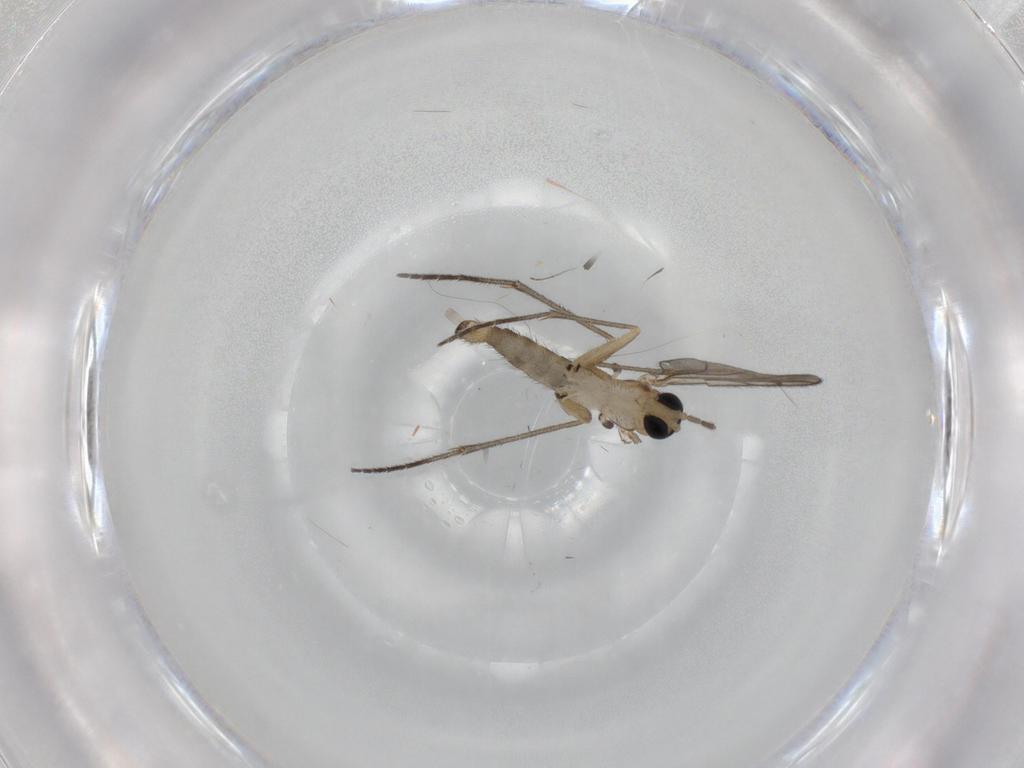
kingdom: Animalia
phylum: Arthropoda
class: Insecta
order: Diptera
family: Sciaridae
